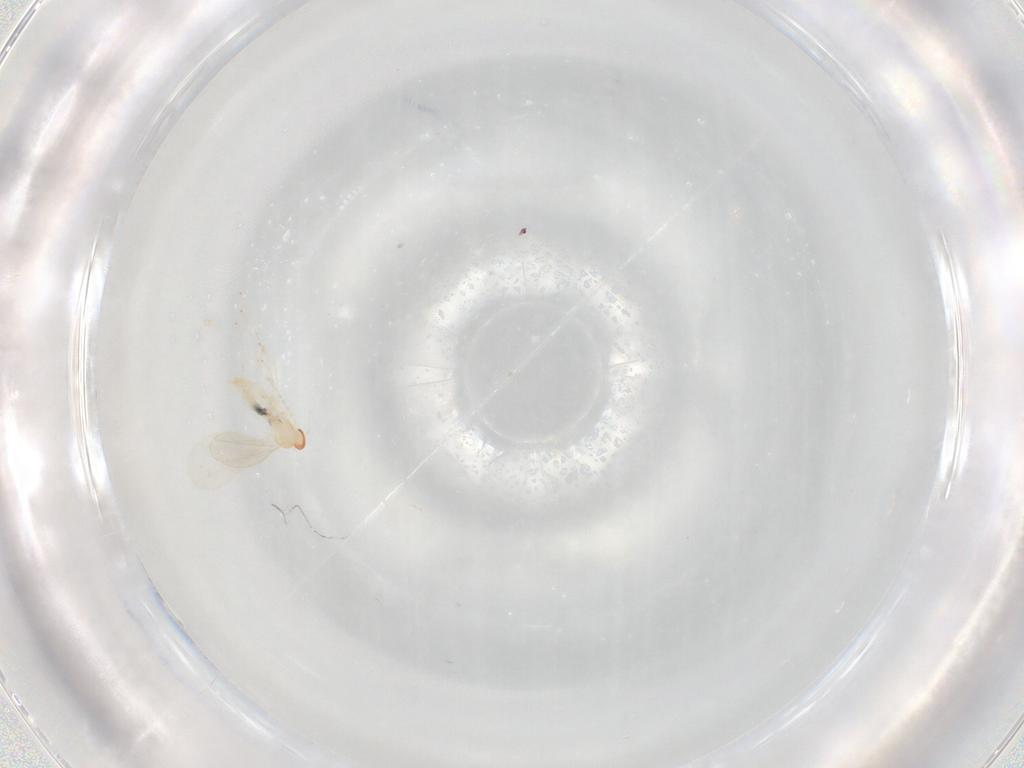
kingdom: Animalia
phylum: Arthropoda
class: Insecta
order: Diptera
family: Cecidomyiidae
